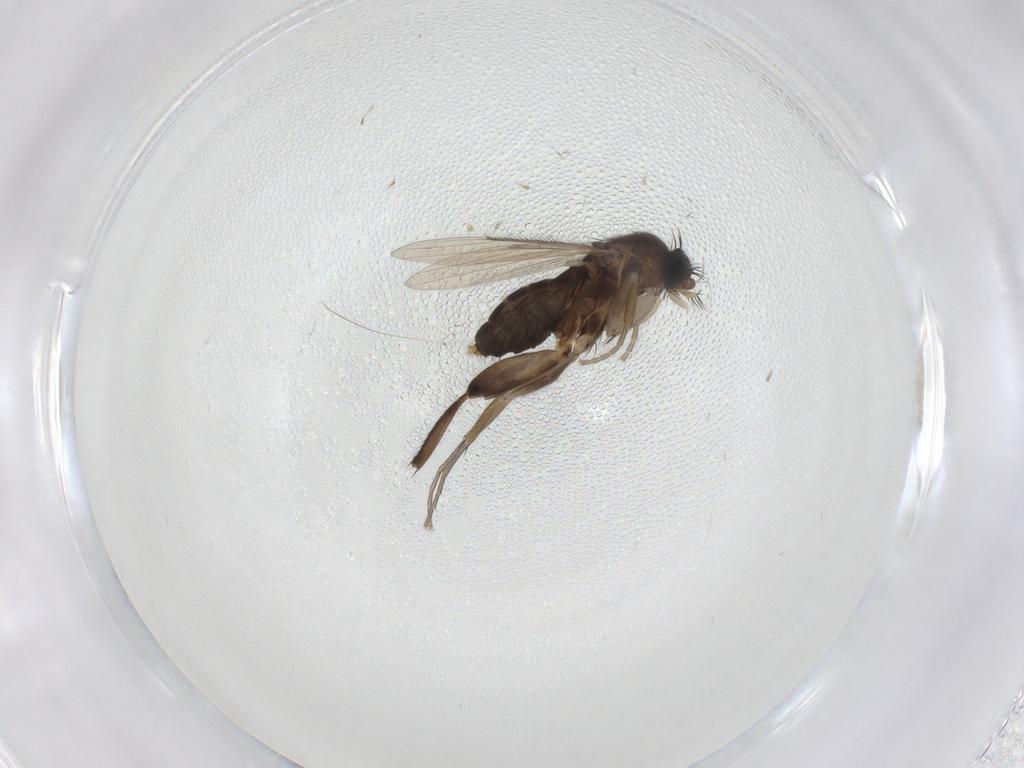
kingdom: Animalia
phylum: Arthropoda
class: Insecta
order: Diptera
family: Phoridae
